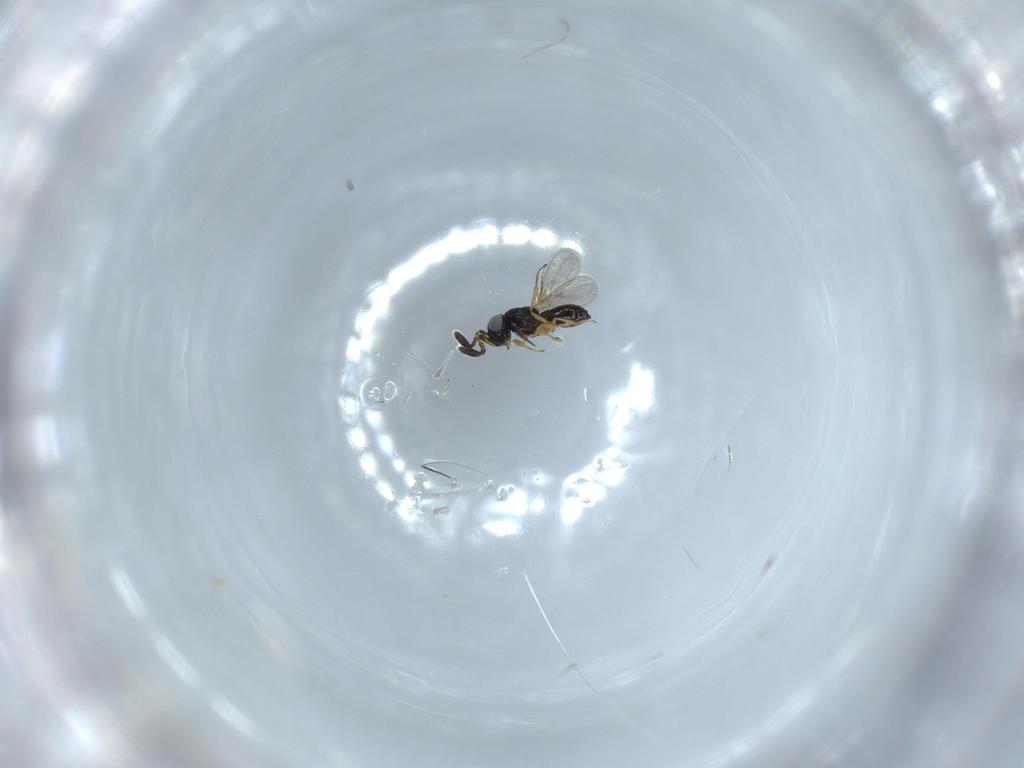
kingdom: Animalia
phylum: Arthropoda
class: Insecta
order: Hymenoptera
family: Scelionidae
